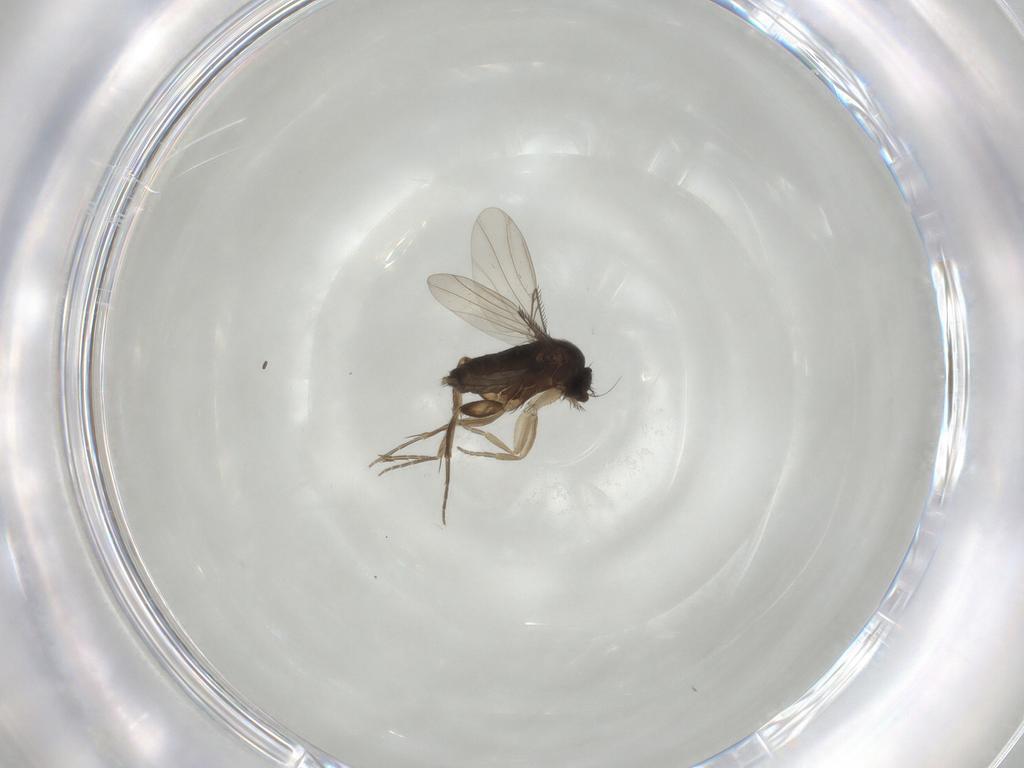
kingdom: Animalia
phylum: Arthropoda
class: Insecta
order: Diptera
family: Phoridae
